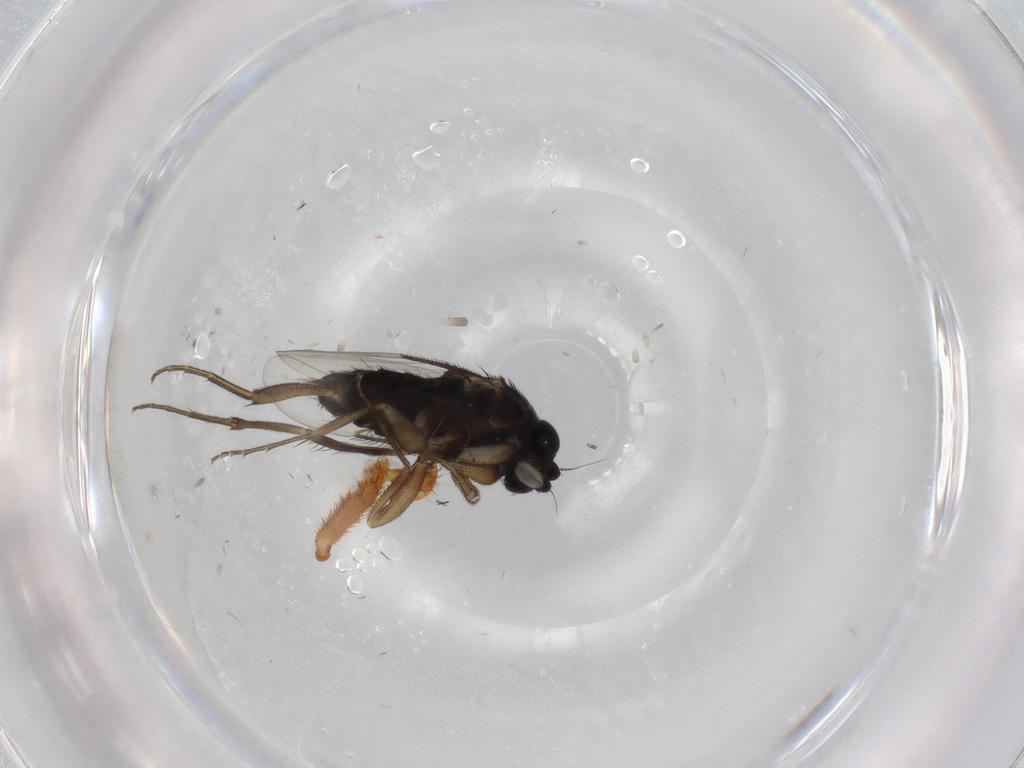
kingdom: Animalia
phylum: Arthropoda
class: Insecta
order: Diptera
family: Phoridae
